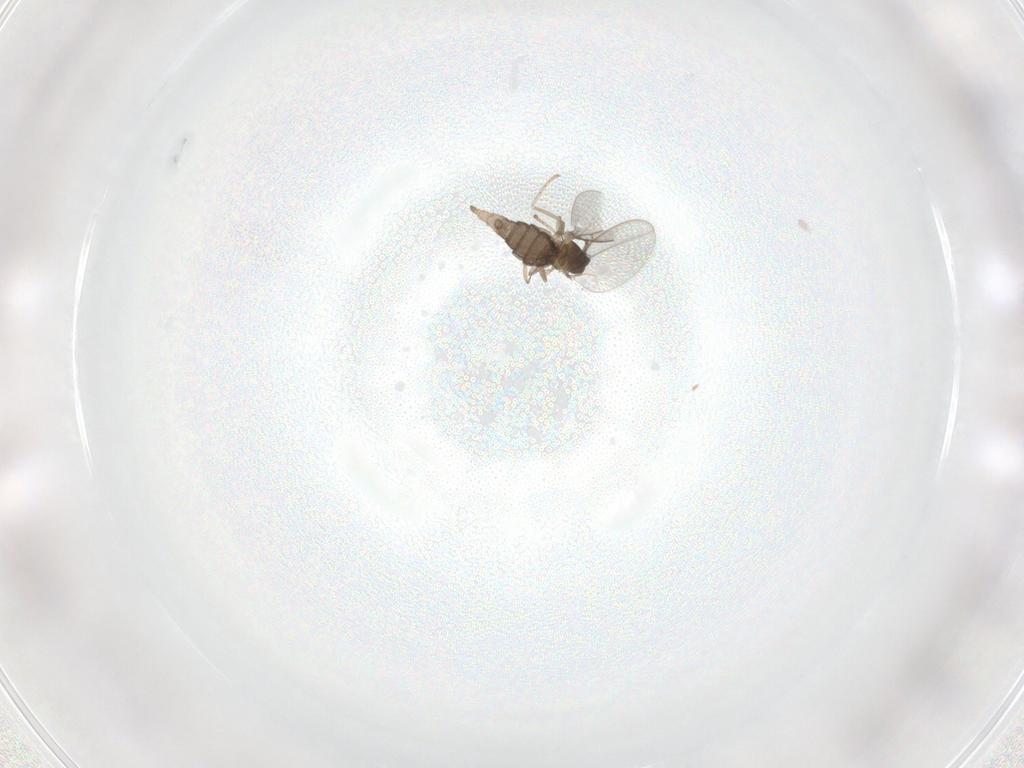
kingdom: Animalia
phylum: Arthropoda
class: Insecta
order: Diptera
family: Cecidomyiidae
